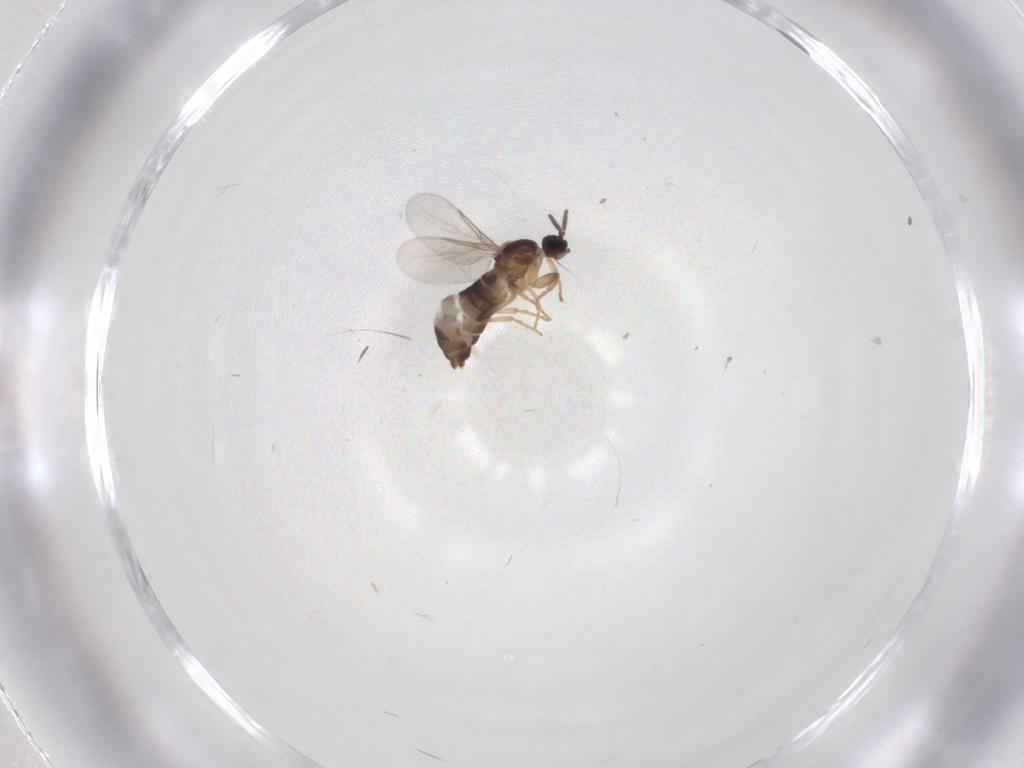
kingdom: Animalia
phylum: Arthropoda
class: Insecta
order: Diptera
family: Scatopsidae
